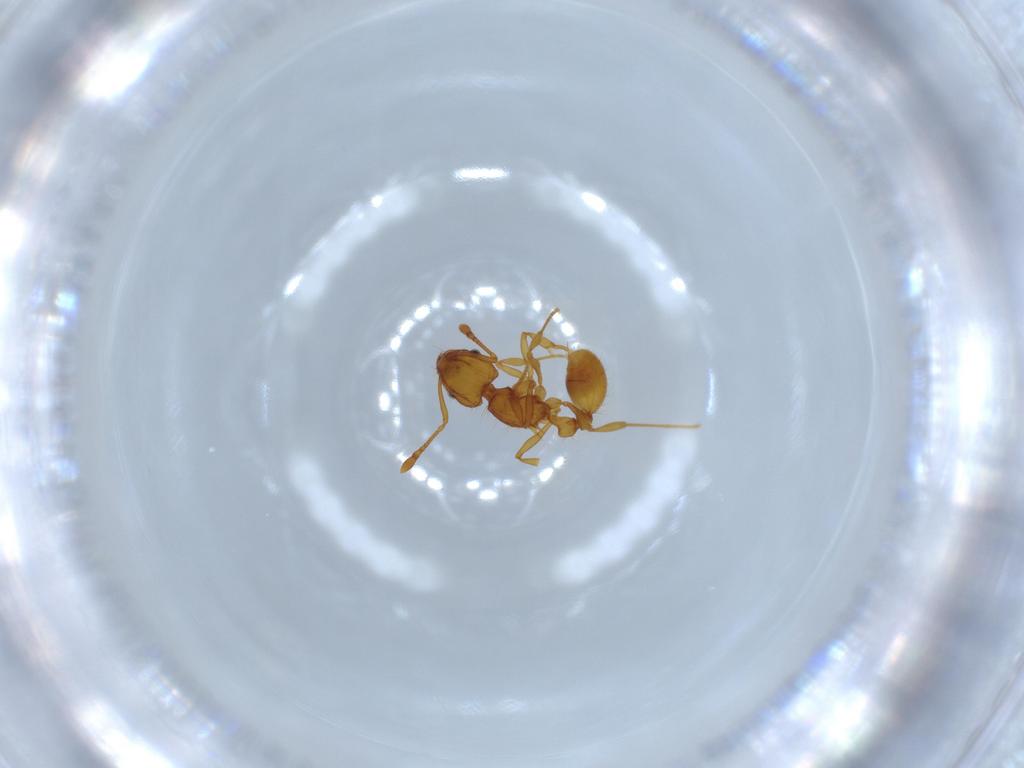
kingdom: Animalia
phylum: Arthropoda
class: Insecta
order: Hymenoptera
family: Formicidae
